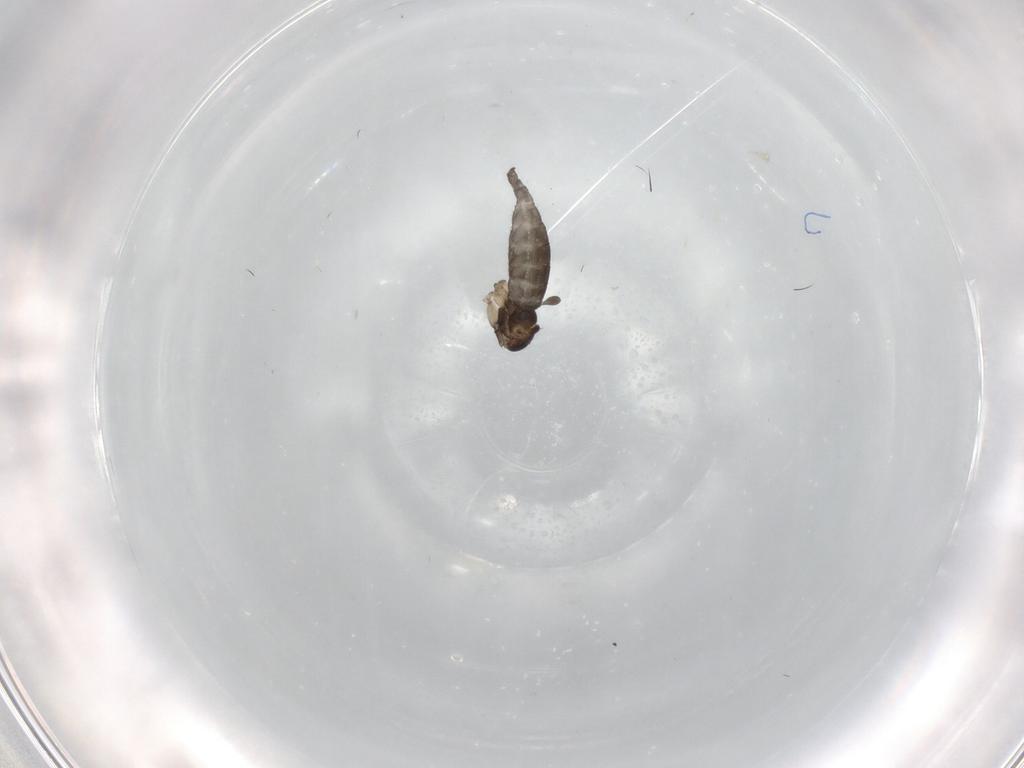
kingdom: Animalia
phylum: Arthropoda
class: Insecta
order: Diptera
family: Sciaridae
